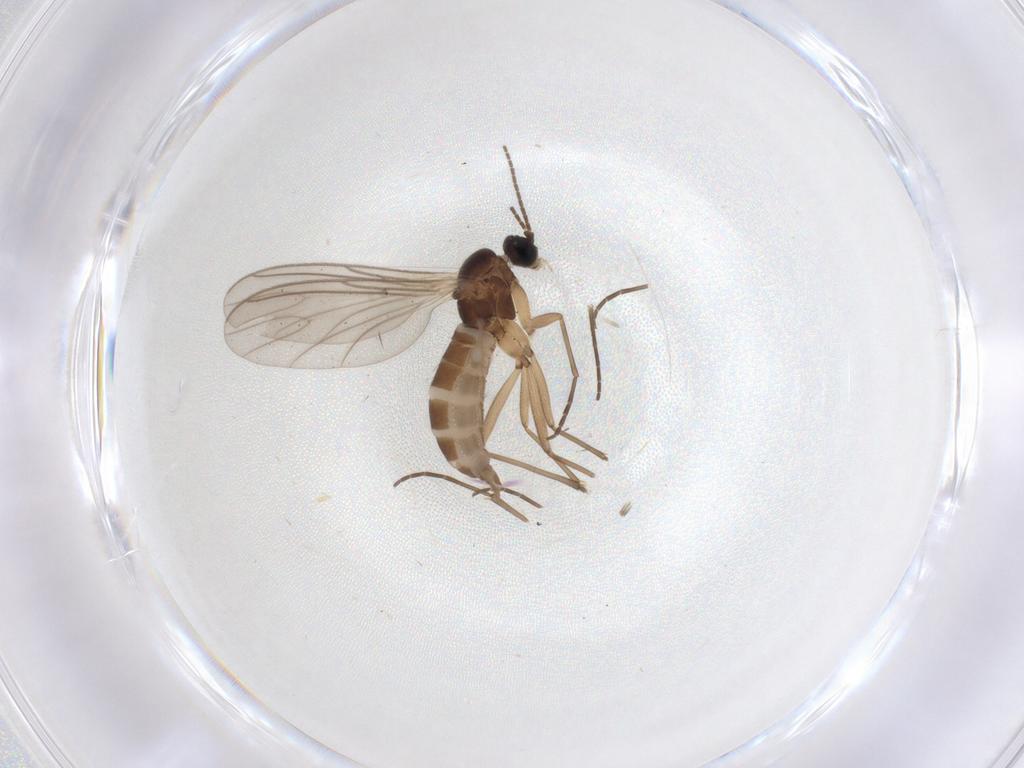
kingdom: Animalia
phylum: Arthropoda
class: Insecta
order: Diptera
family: Sciaridae
